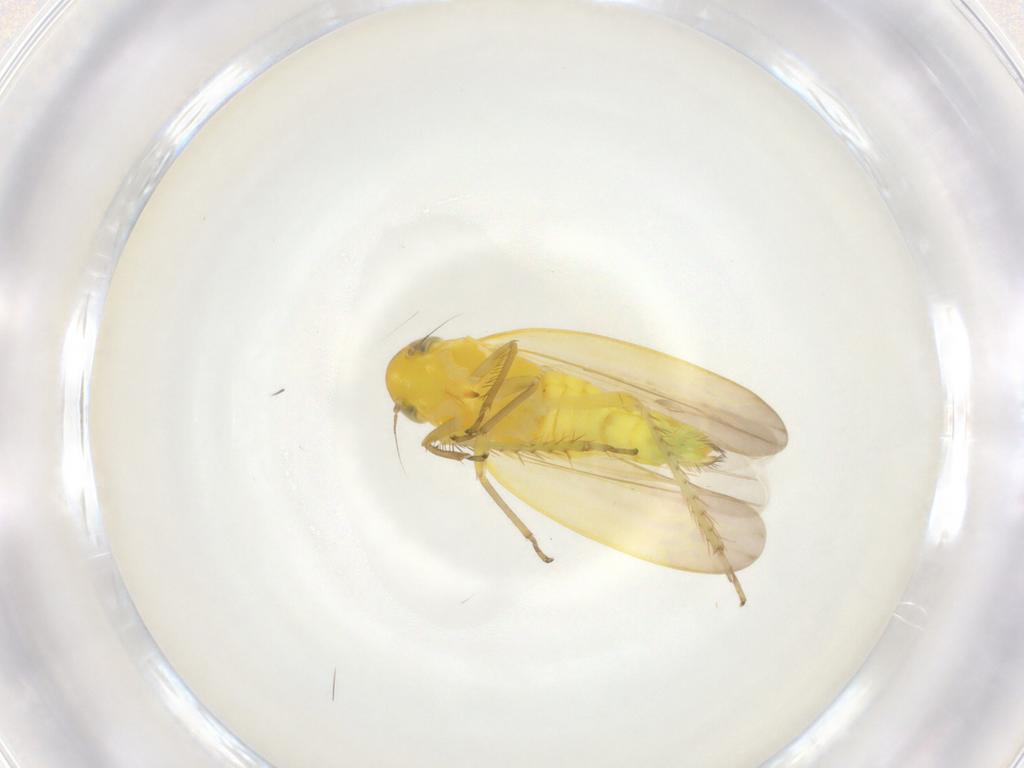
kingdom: Animalia
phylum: Arthropoda
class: Insecta
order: Hemiptera
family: Cicadellidae
